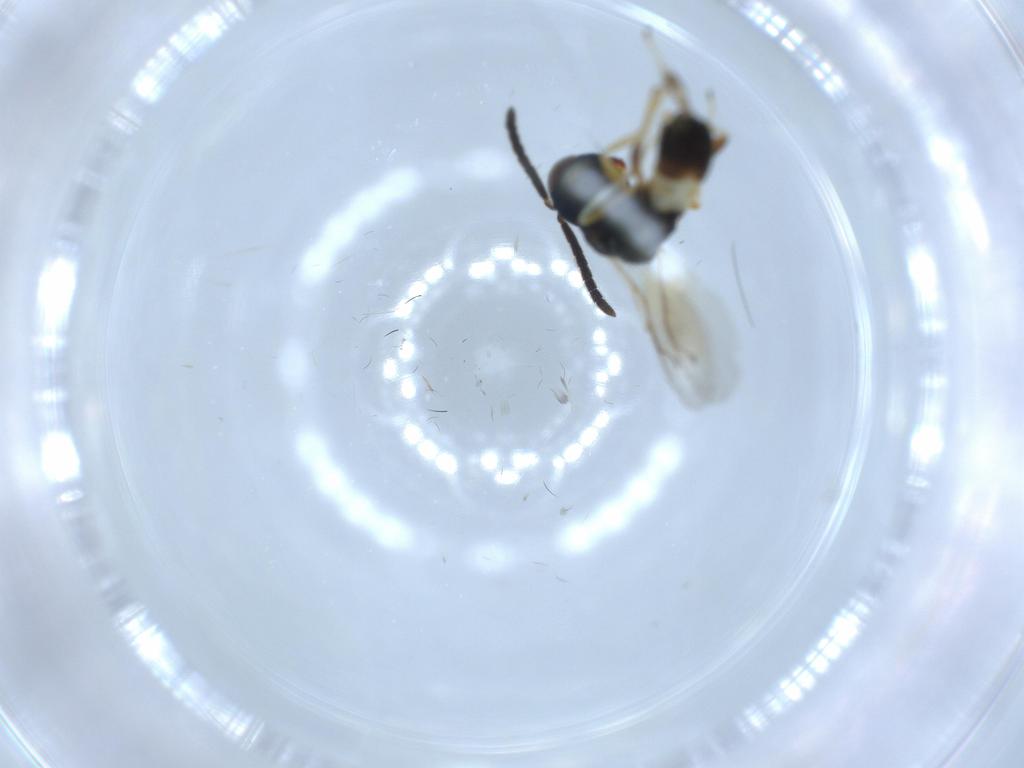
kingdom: Animalia
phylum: Arthropoda
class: Insecta
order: Hymenoptera
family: Pteromalidae
